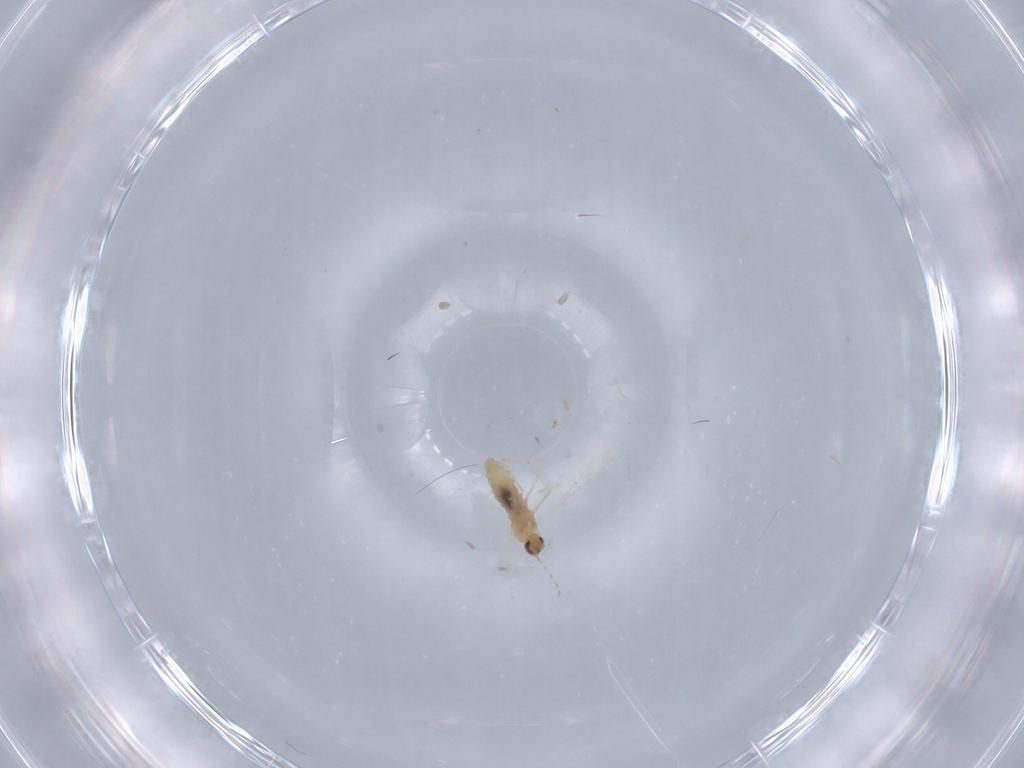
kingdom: Animalia
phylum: Arthropoda
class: Insecta
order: Diptera
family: Cecidomyiidae
